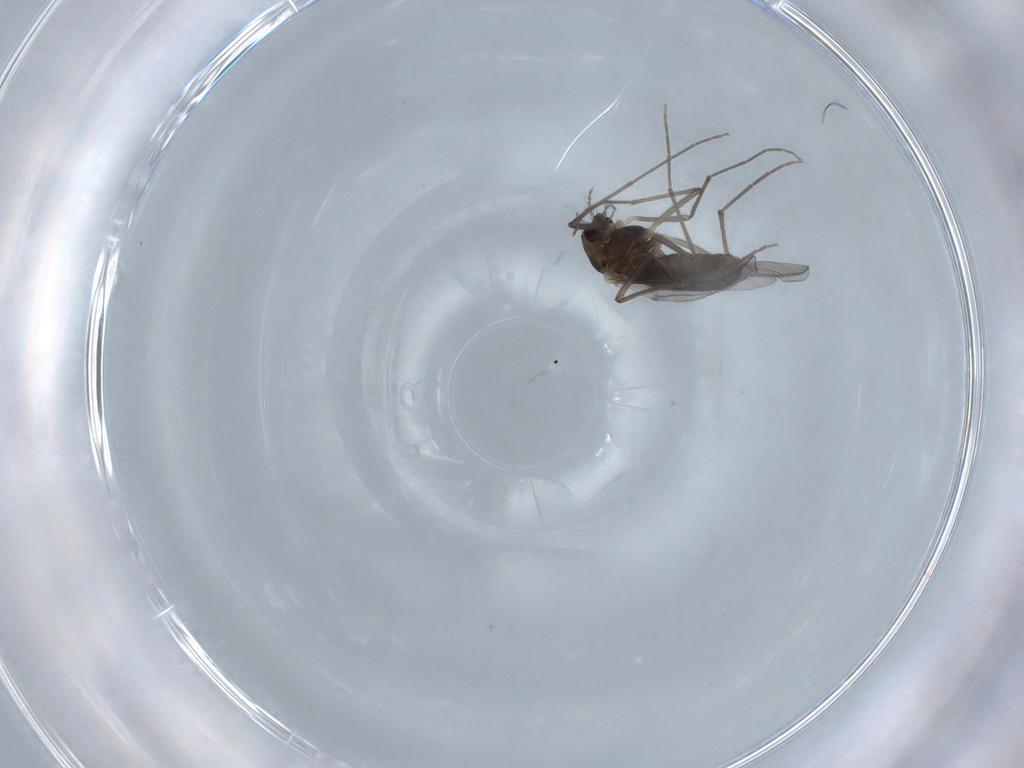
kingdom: Animalia
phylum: Arthropoda
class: Insecta
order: Diptera
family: Chironomidae
